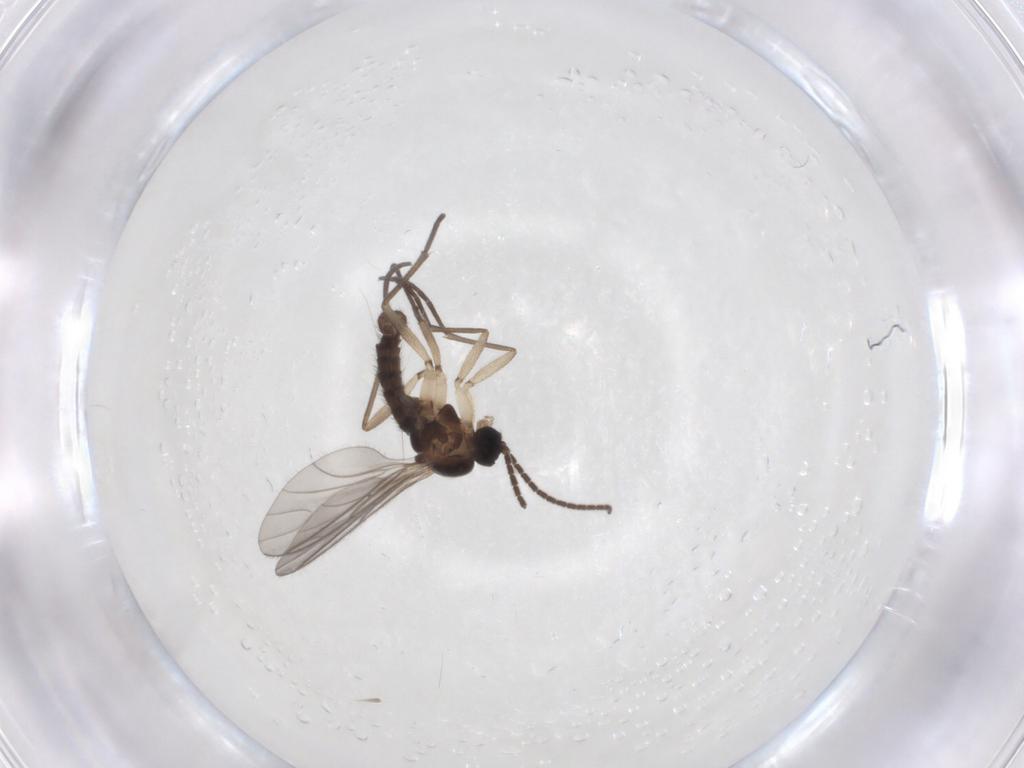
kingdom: Animalia
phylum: Arthropoda
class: Insecta
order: Diptera
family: Sciaridae
